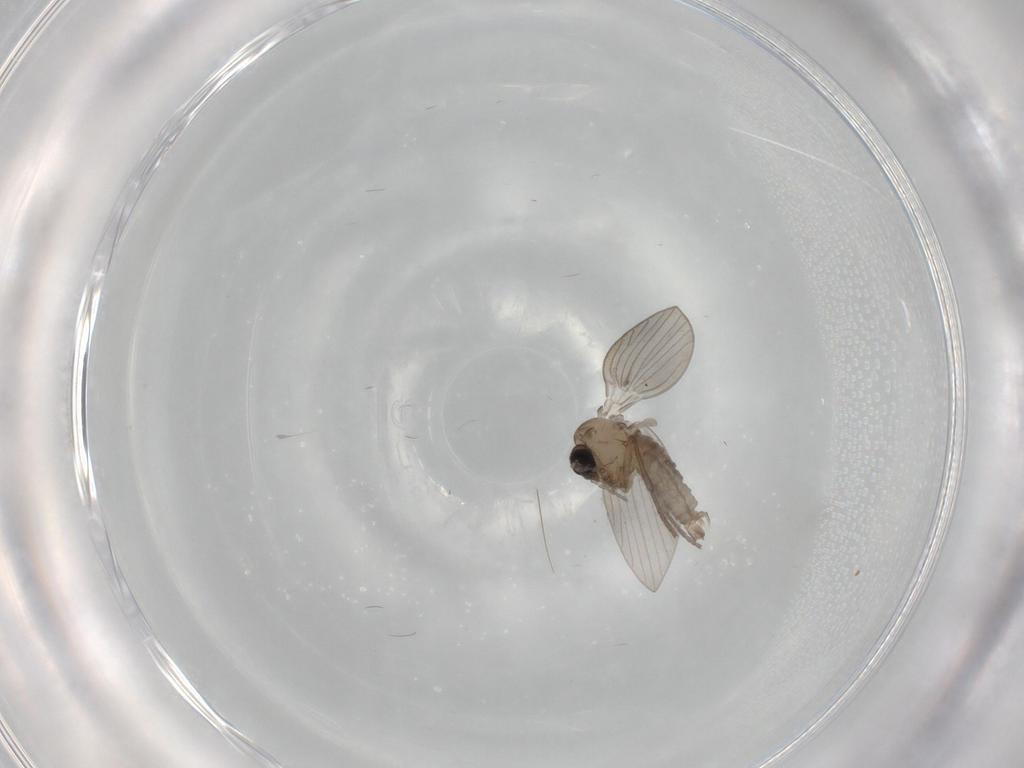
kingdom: Animalia
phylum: Arthropoda
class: Insecta
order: Diptera
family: Psychodidae
